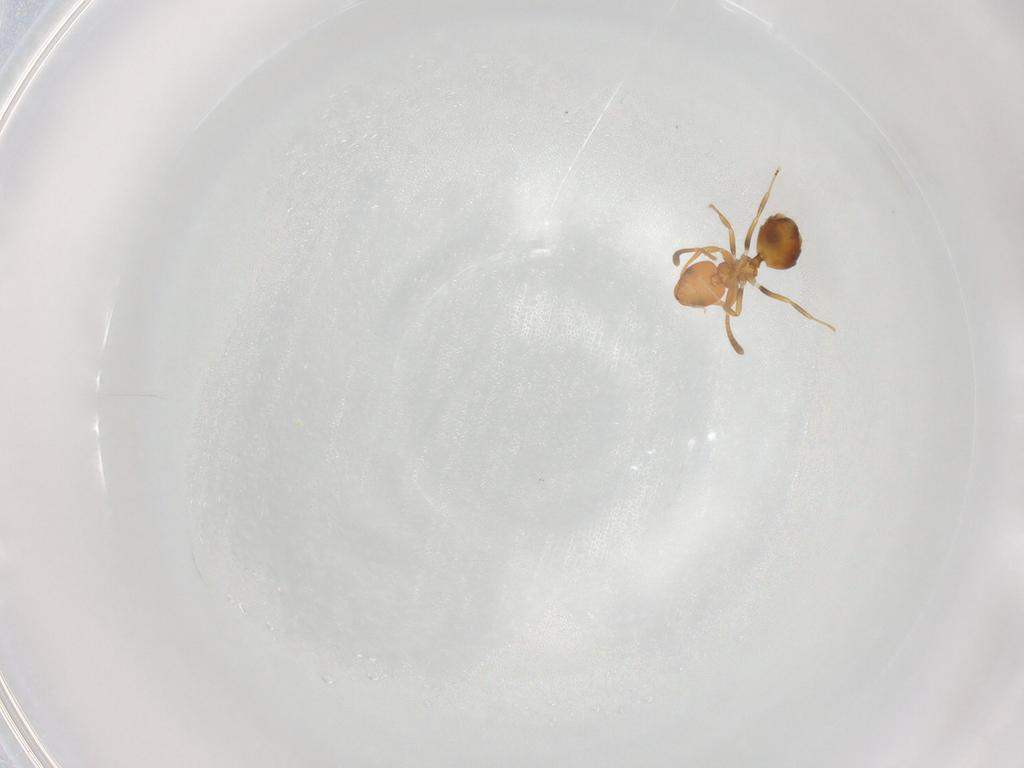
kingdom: Animalia
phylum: Arthropoda
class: Insecta
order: Hymenoptera
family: Formicidae
